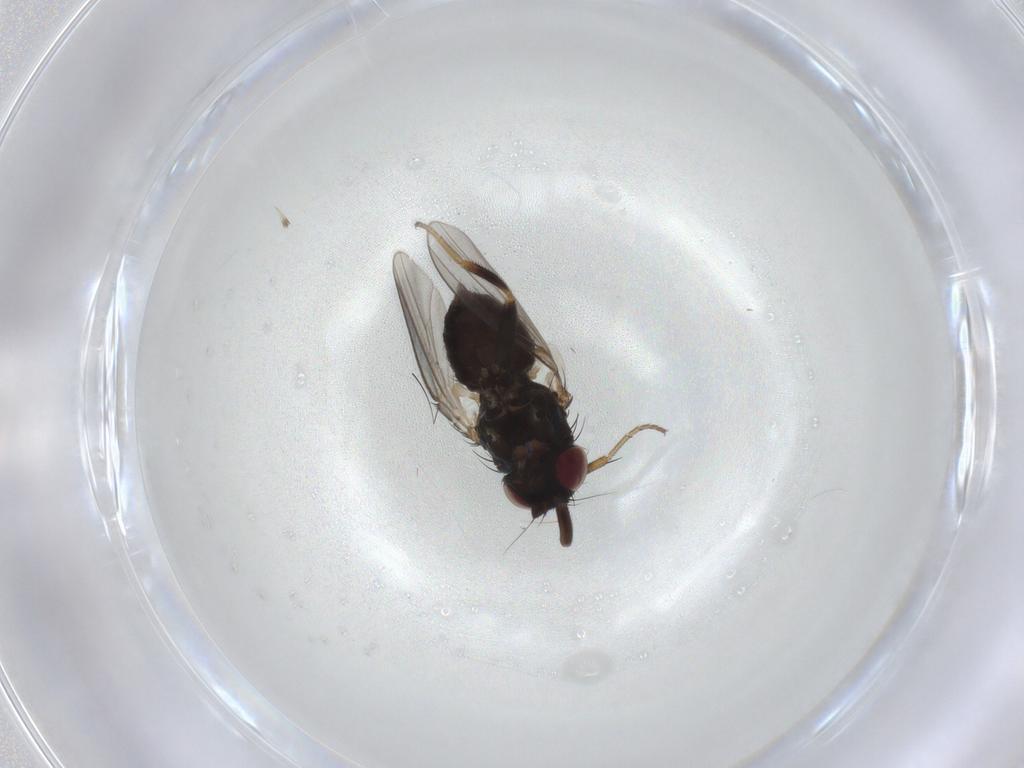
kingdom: Animalia
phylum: Arthropoda
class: Insecta
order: Diptera
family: Milichiidae
